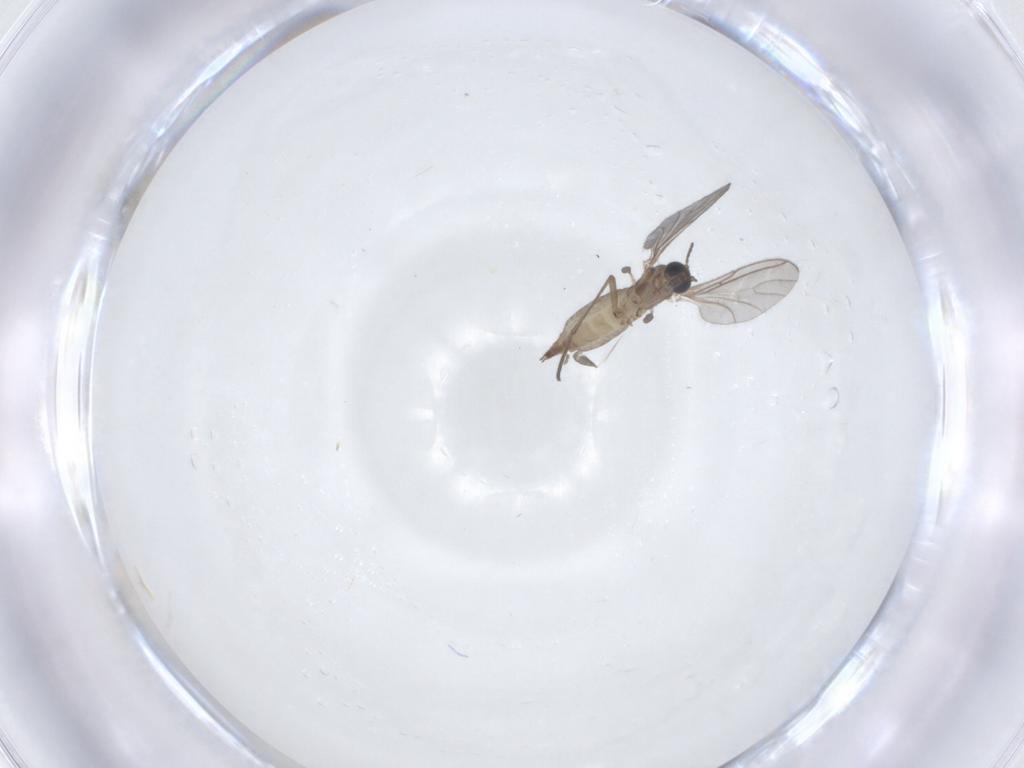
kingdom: Animalia
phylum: Arthropoda
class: Insecta
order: Diptera
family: Sciaridae
